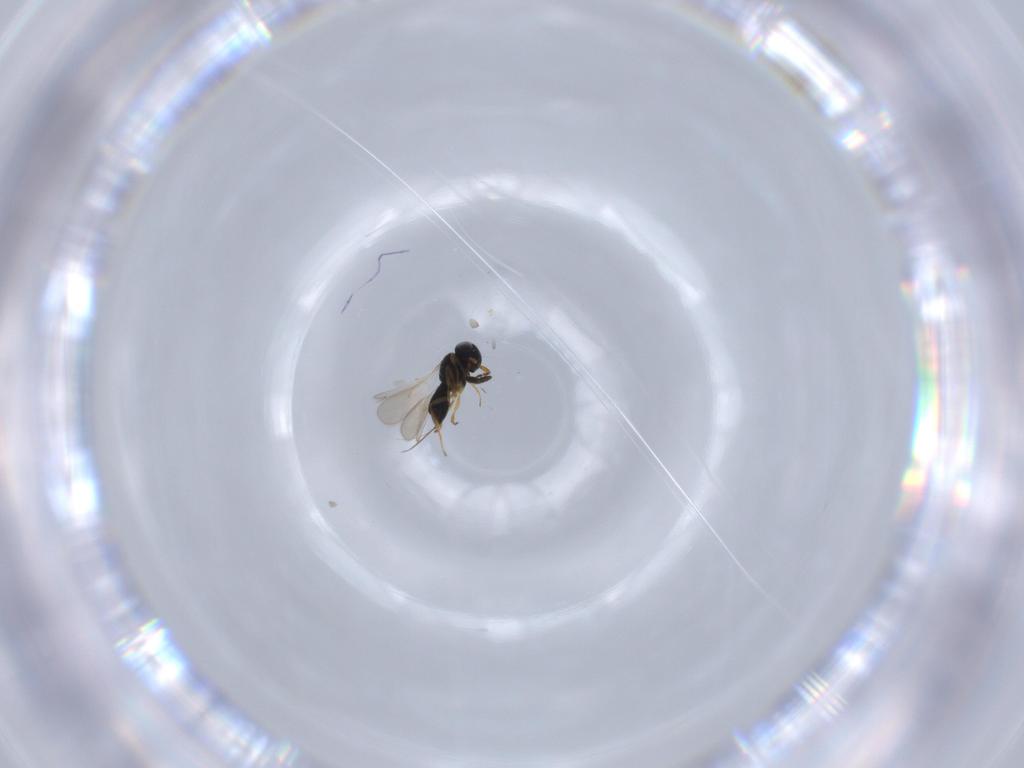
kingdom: Animalia
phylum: Arthropoda
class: Insecta
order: Hymenoptera
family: Scelionidae
